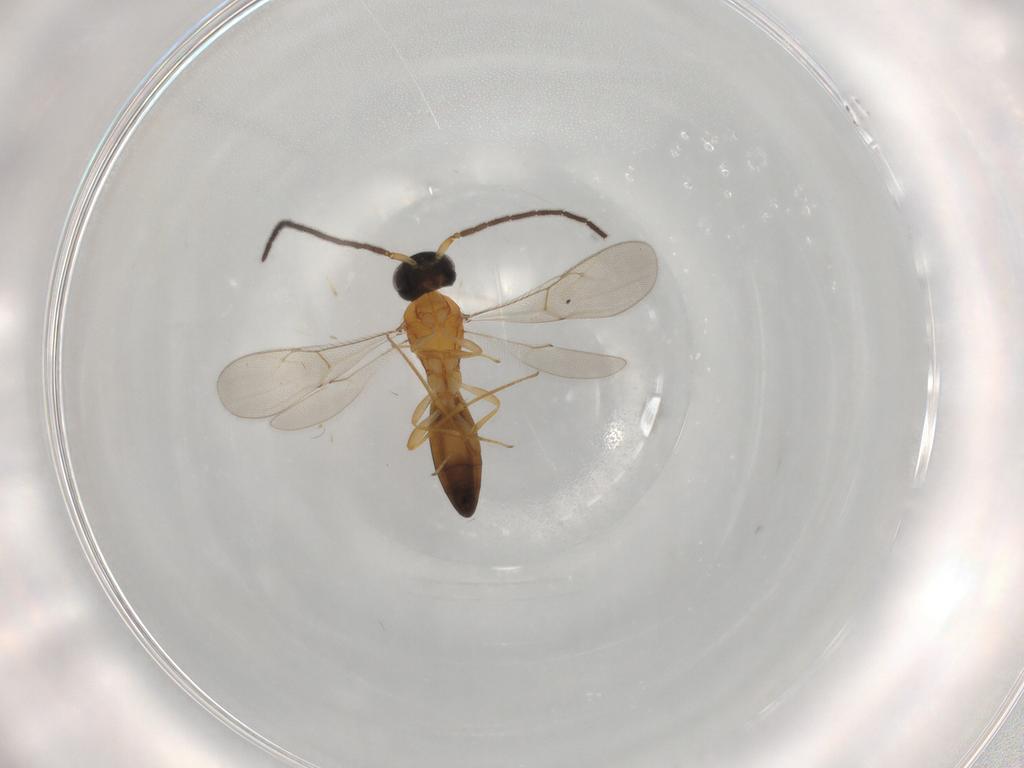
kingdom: Animalia
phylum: Arthropoda
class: Insecta
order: Hymenoptera
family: Scelionidae
